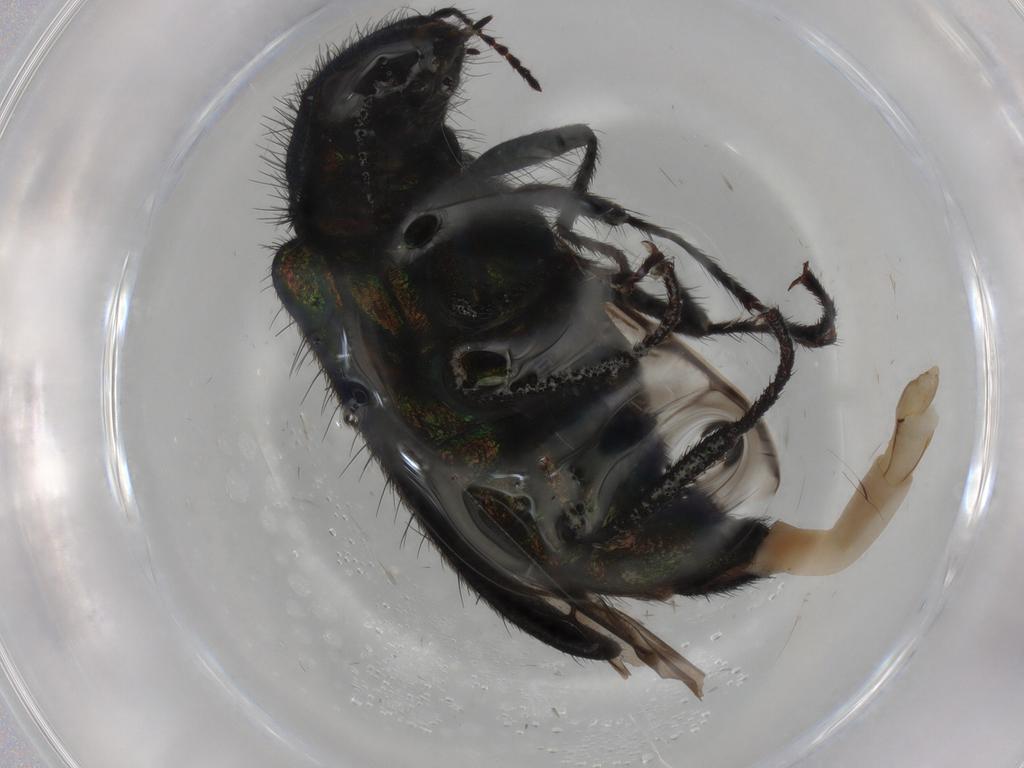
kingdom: Animalia
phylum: Arthropoda
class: Insecta
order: Coleoptera
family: Melyridae
